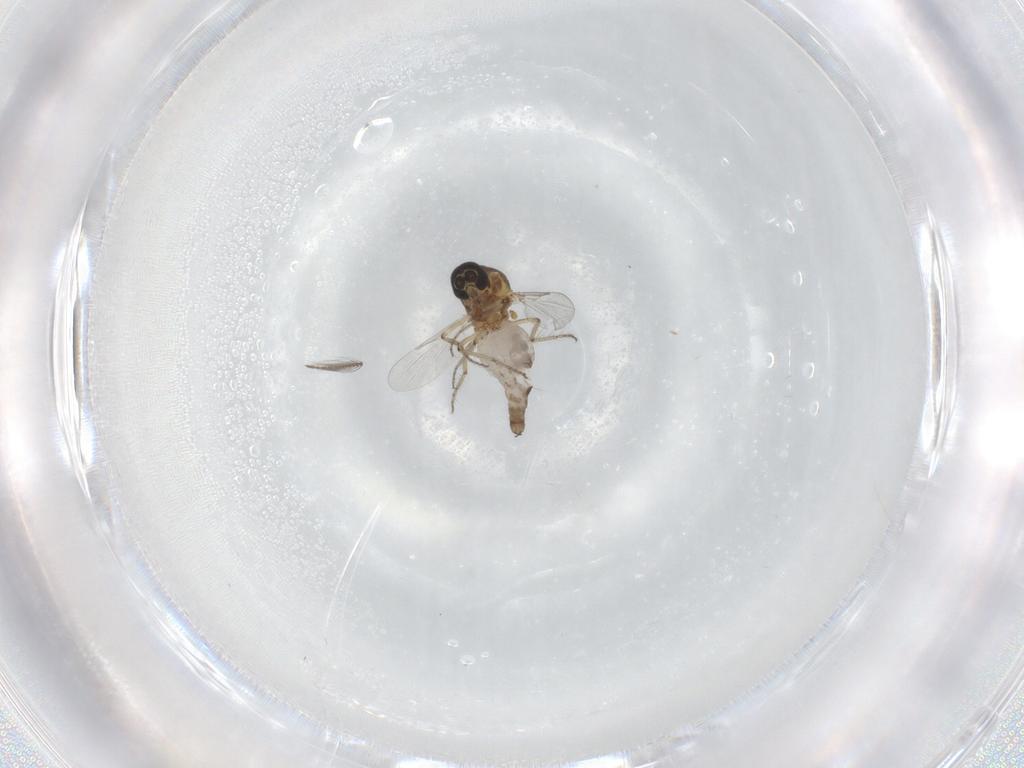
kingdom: Animalia
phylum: Arthropoda
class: Insecta
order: Diptera
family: Ceratopogonidae
